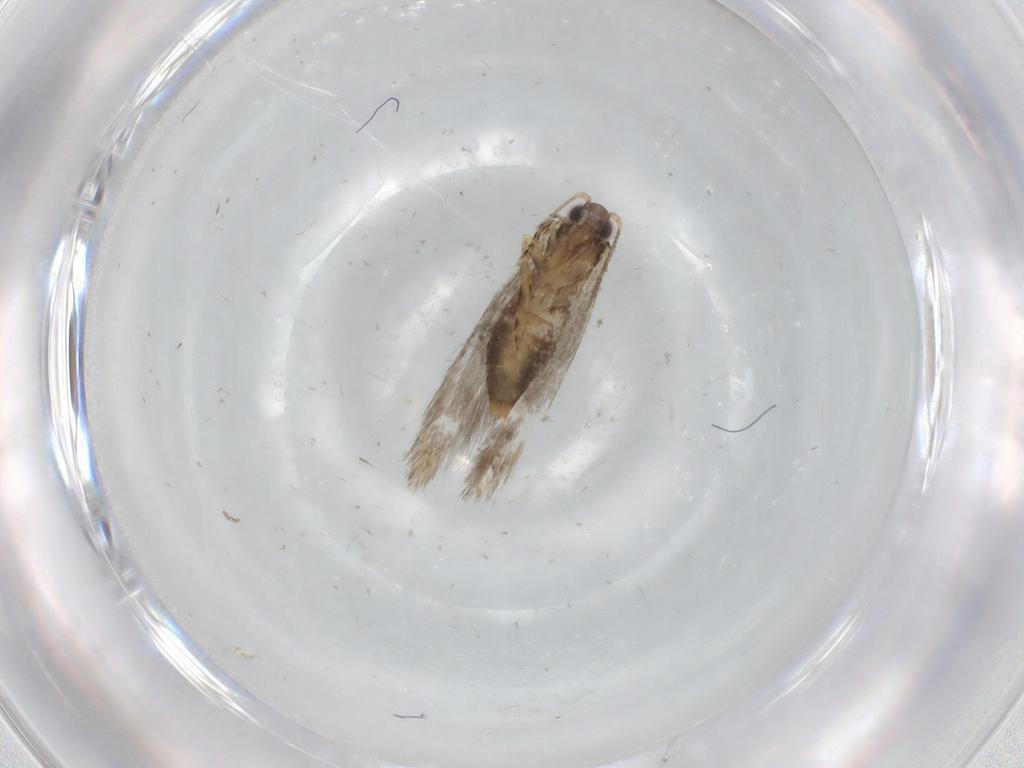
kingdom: Animalia
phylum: Arthropoda
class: Insecta
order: Lepidoptera
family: Tineidae
